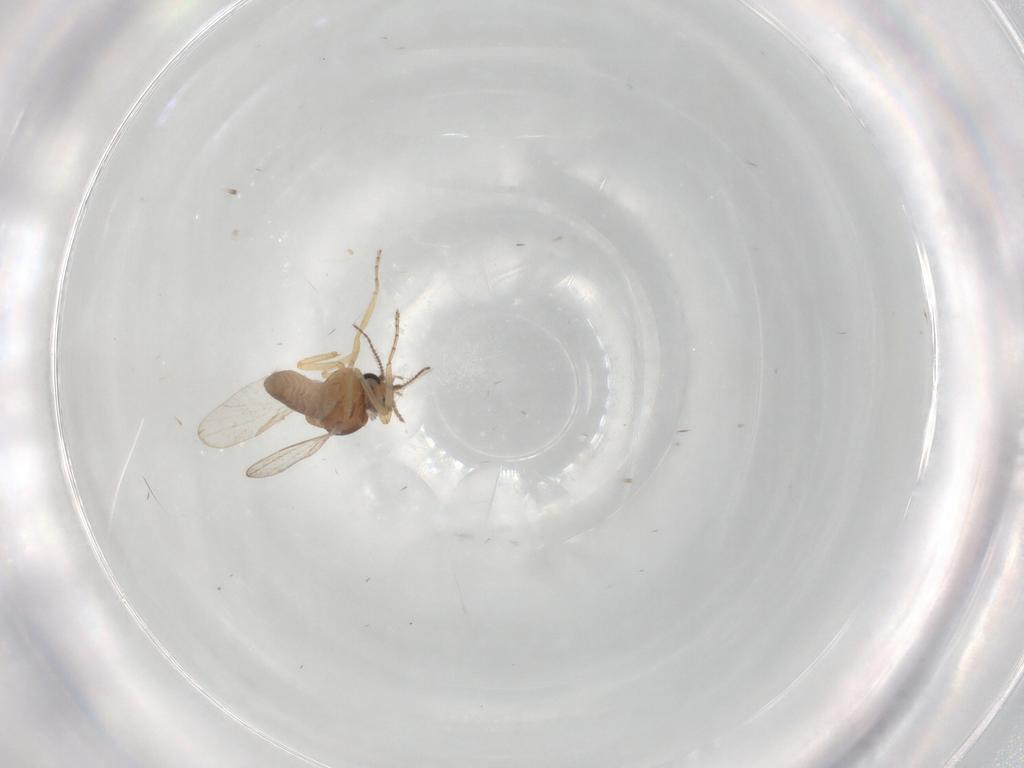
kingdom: Animalia
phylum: Arthropoda
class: Insecta
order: Diptera
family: Ceratopogonidae
